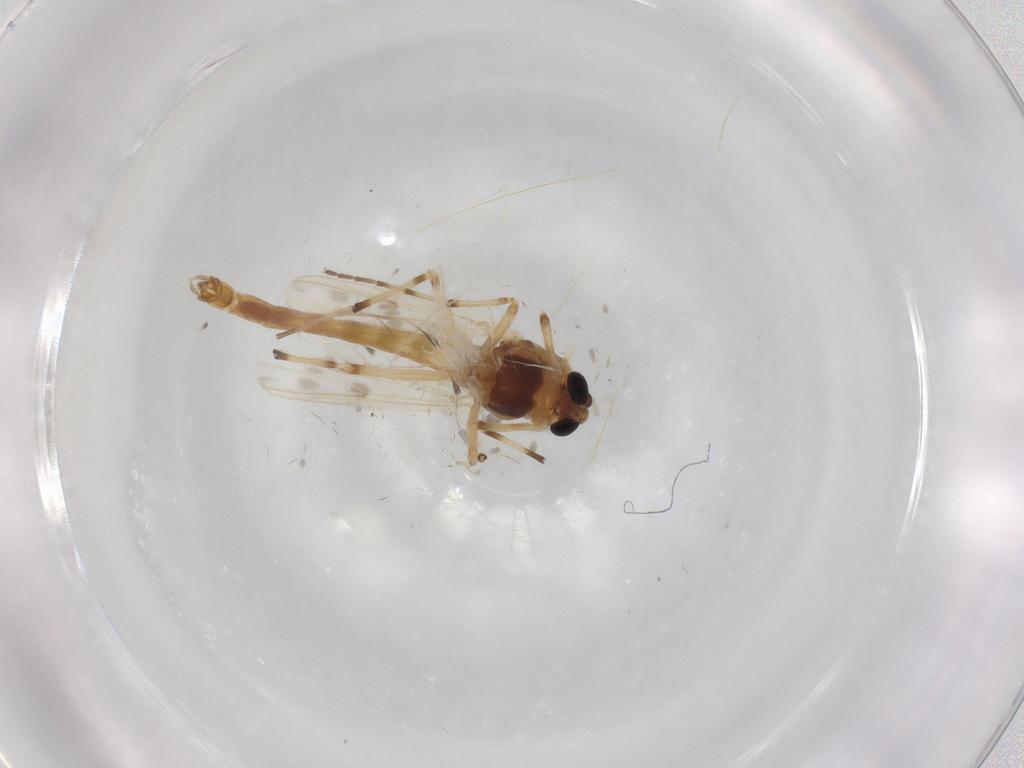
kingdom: Animalia
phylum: Arthropoda
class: Insecta
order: Diptera
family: Chironomidae
